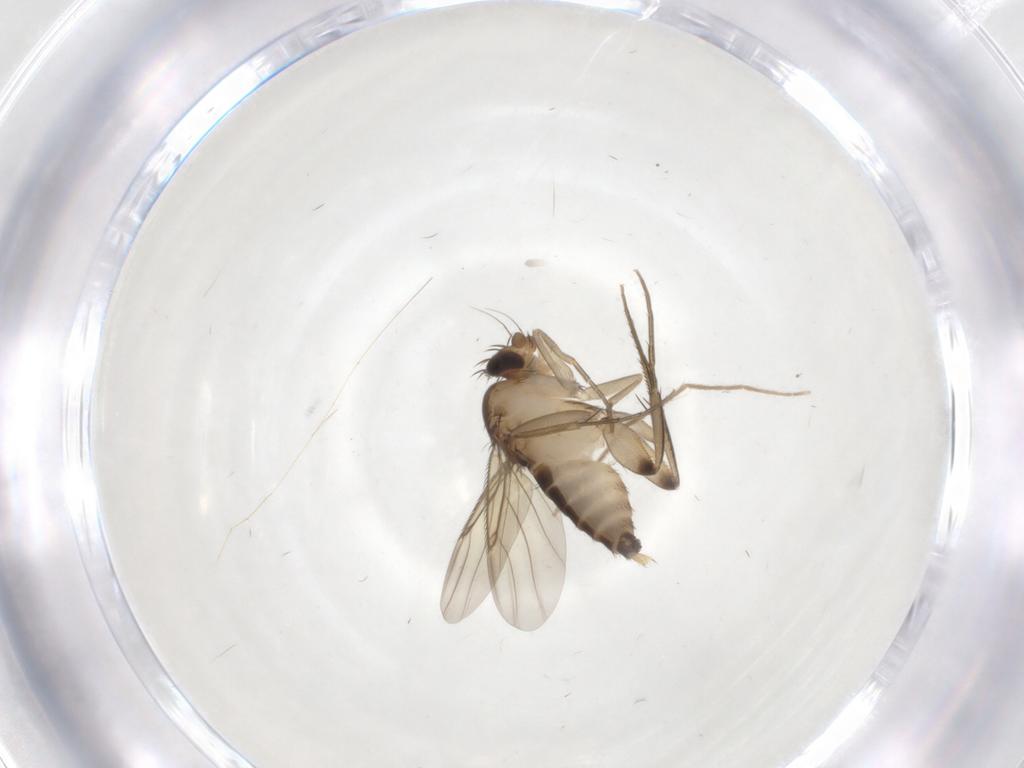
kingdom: Animalia
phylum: Arthropoda
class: Insecta
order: Diptera
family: Chironomidae
